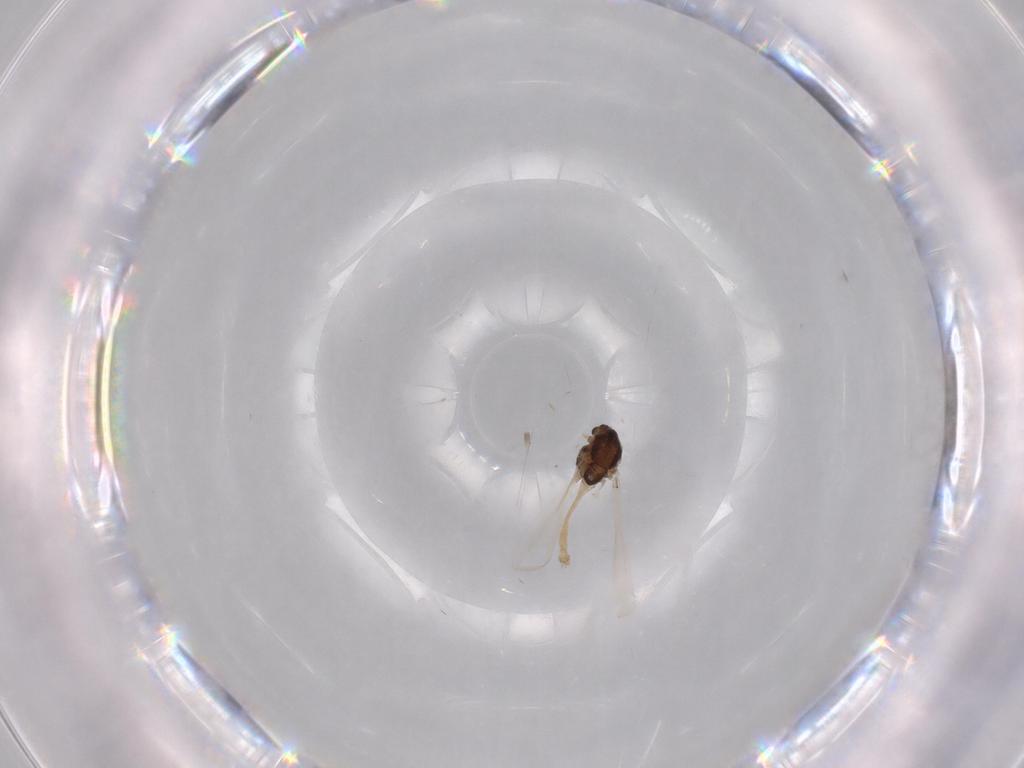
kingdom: Animalia
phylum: Arthropoda
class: Insecta
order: Diptera
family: Chironomidae
